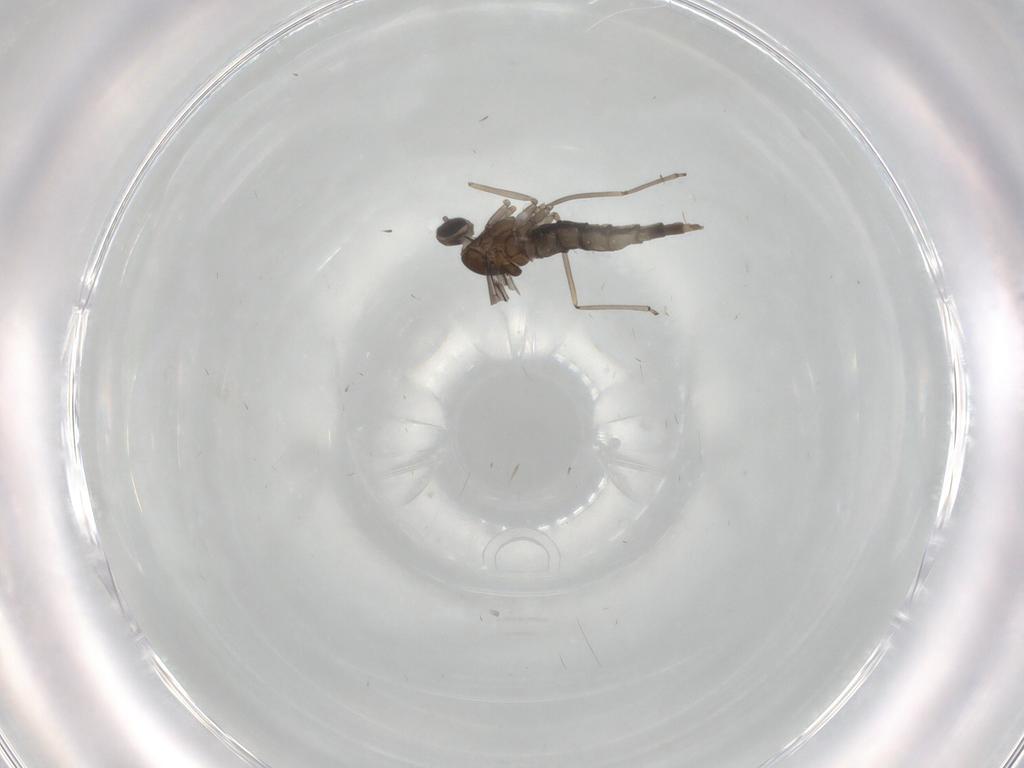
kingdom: Animalia
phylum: Arthropoda
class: Insecta
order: Diptera
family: Cecidomyiidae
